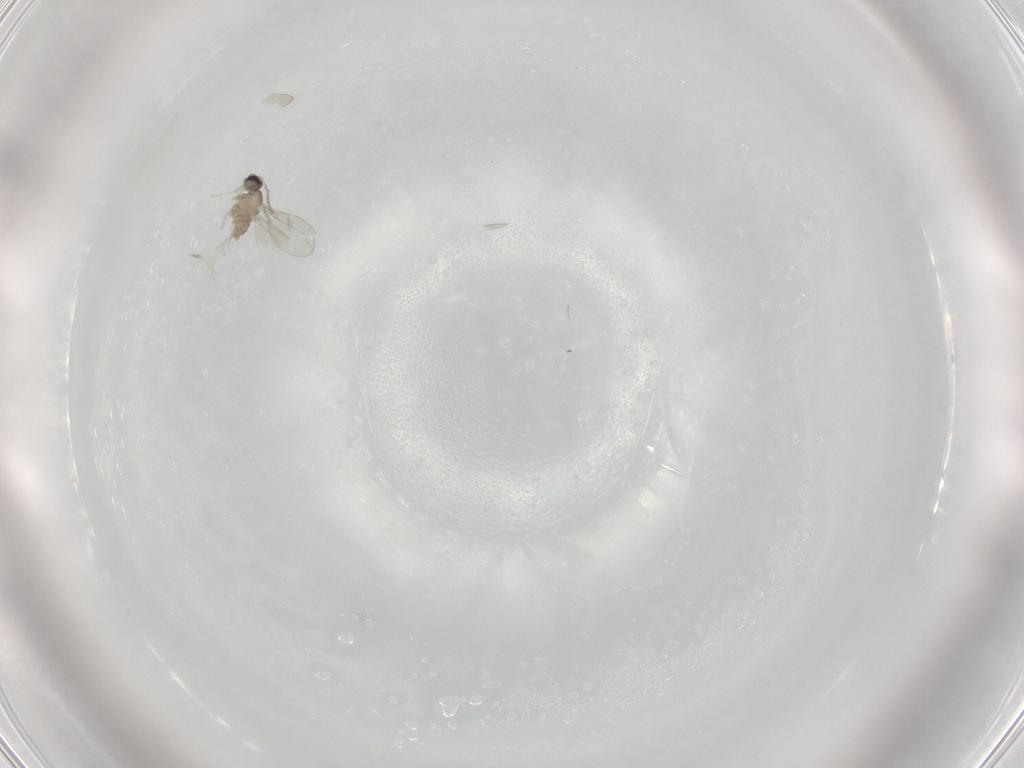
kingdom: Animalia
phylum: Arthropoda
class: Insecta
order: Diptera
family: Cecidomyiidae
